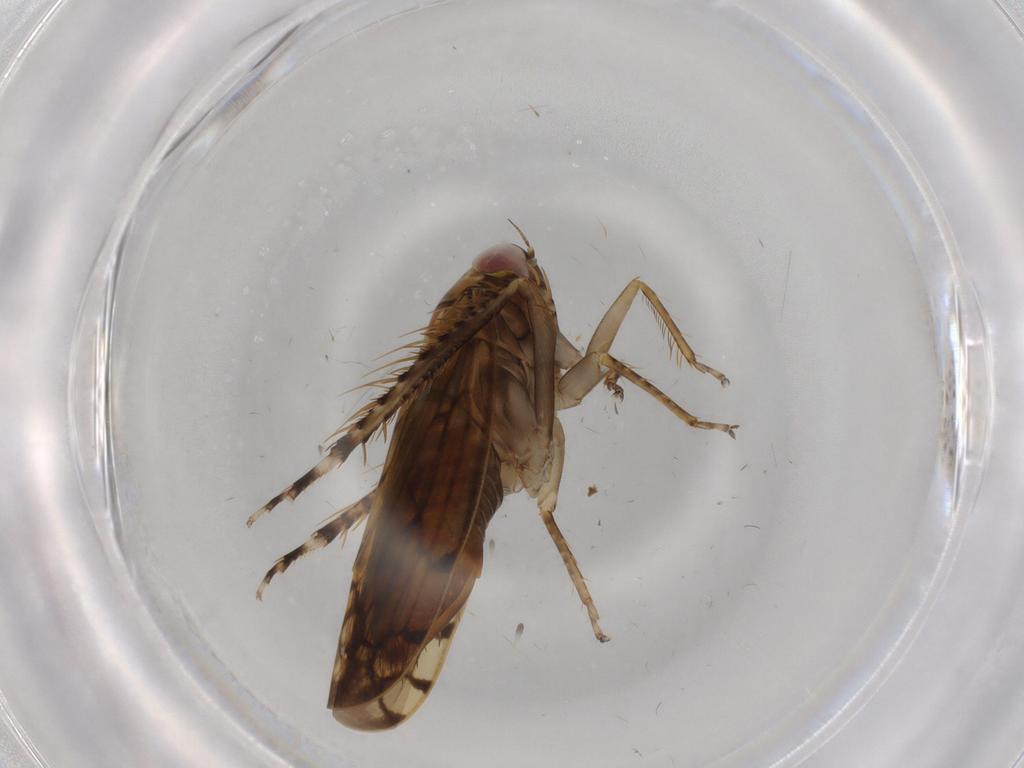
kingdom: Animalia
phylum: Arthropoda
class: Insecta
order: Hemiptera
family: Cicadellidae
